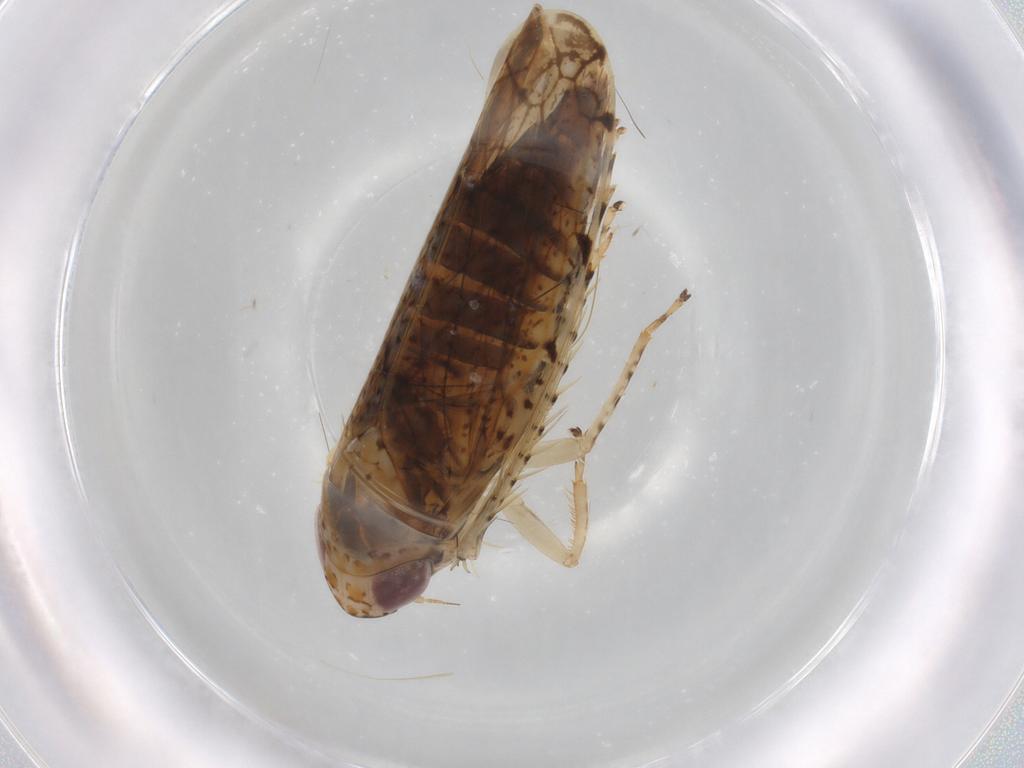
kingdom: Animalia
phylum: Arthropoda
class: Insecta
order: Hemiptera
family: Cicadellidae
